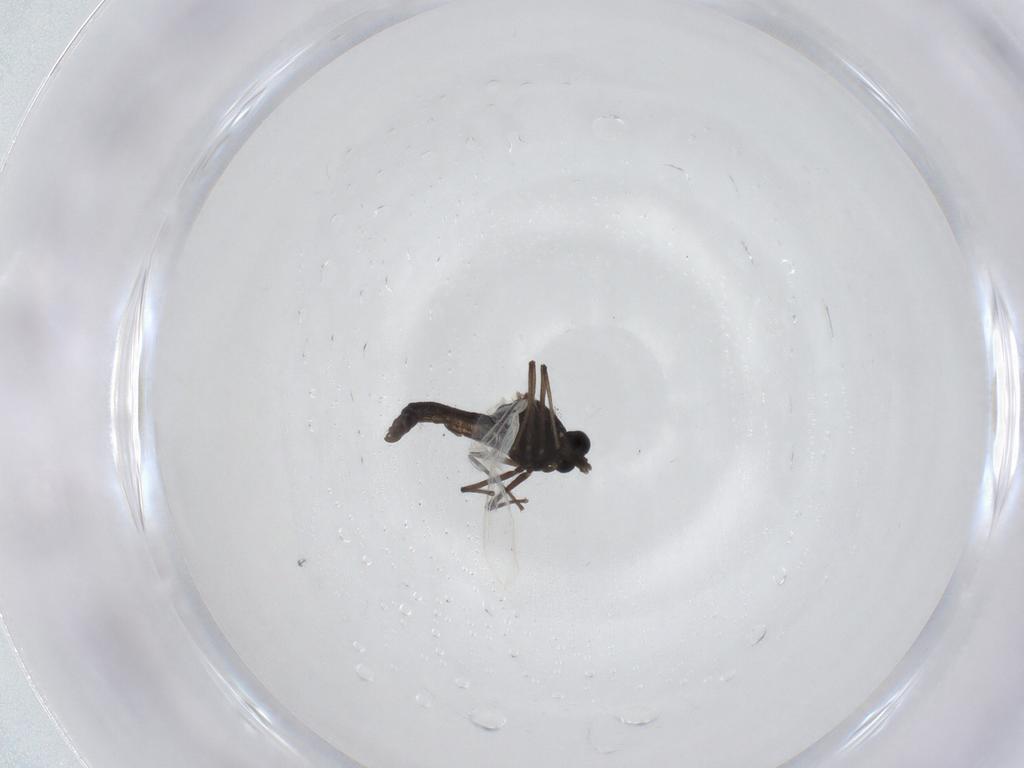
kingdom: Animalia
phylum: Arthropoda
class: Insecta
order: Diptera
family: Chironomidae
